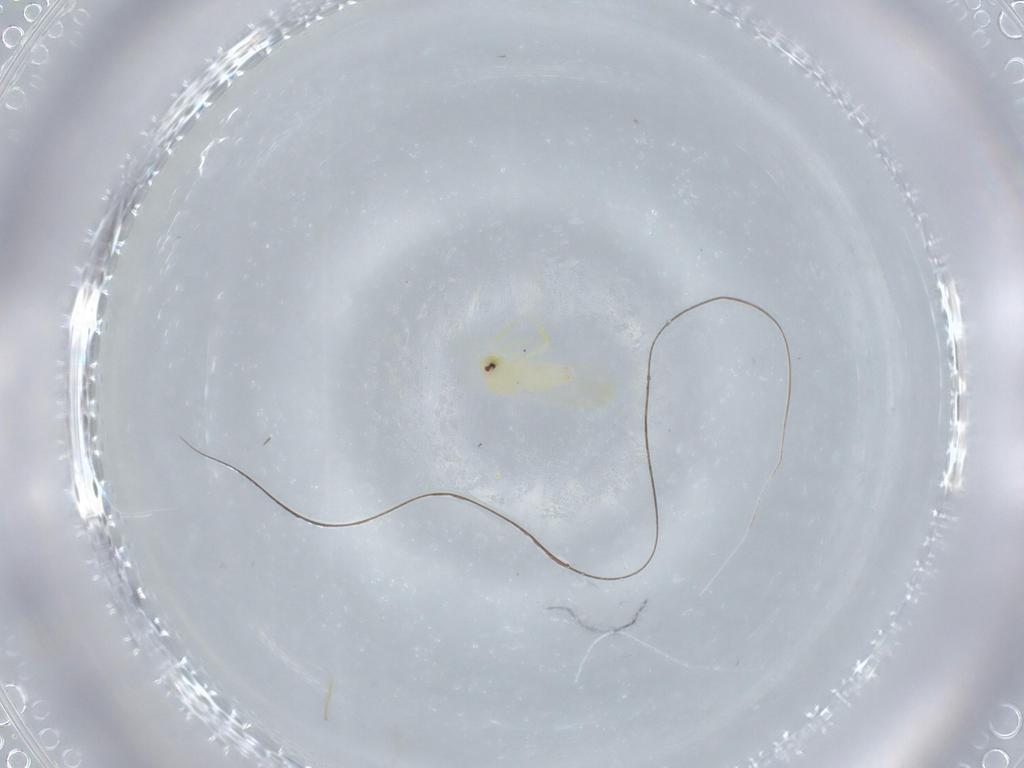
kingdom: Animalia
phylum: Arthropoda
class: Insecta
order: Hemiptera
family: Aleyrodidae
